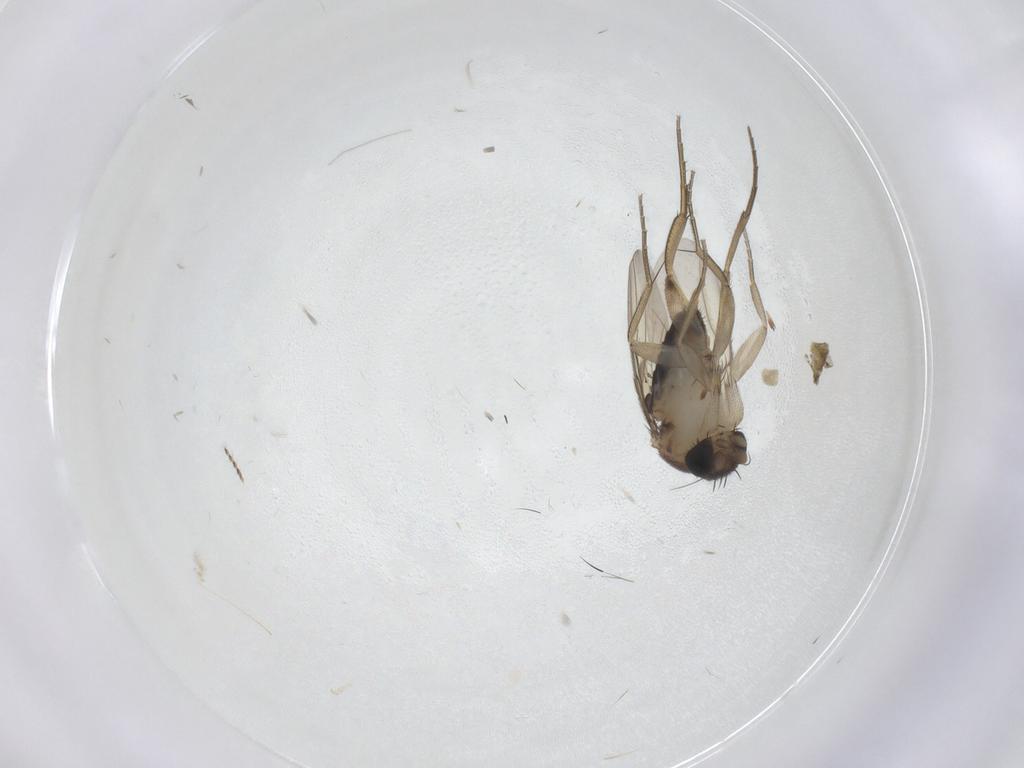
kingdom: Animalia
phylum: Arthropoda
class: Insecta
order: Diptera
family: Phoridae
